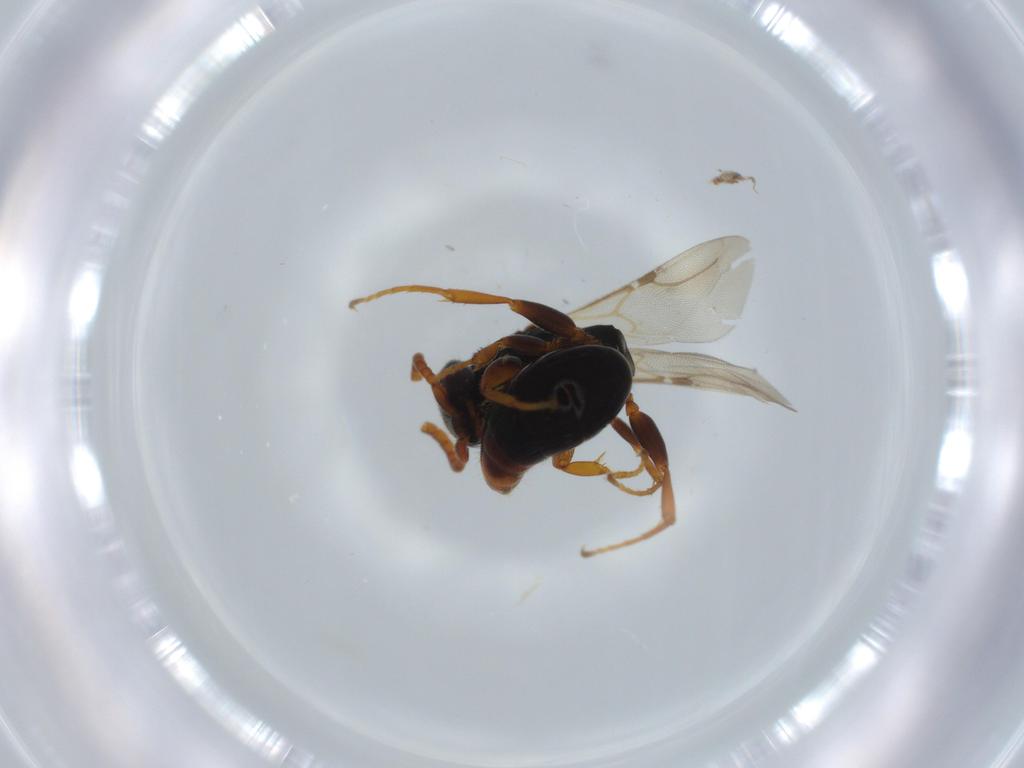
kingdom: Animalia
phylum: Arthropoda
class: Insecta
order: Hymenoptera
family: Bethylidae
